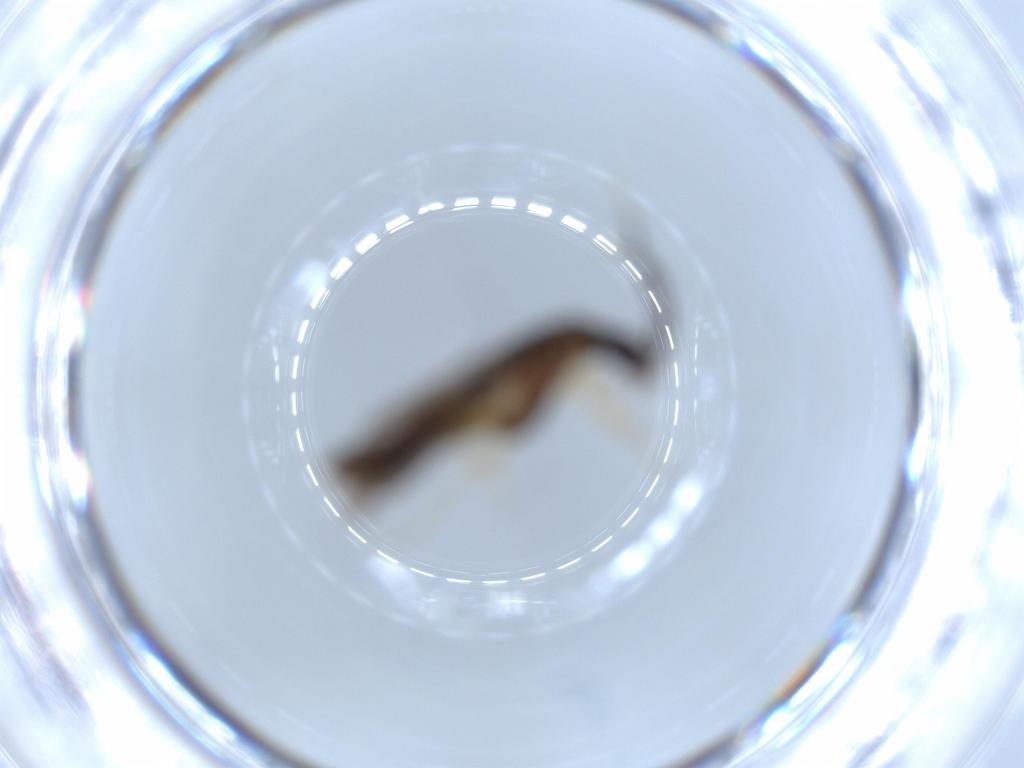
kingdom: Animalia
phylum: Arthropoda
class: Insecta
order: Coleoptera
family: Cantharidae
